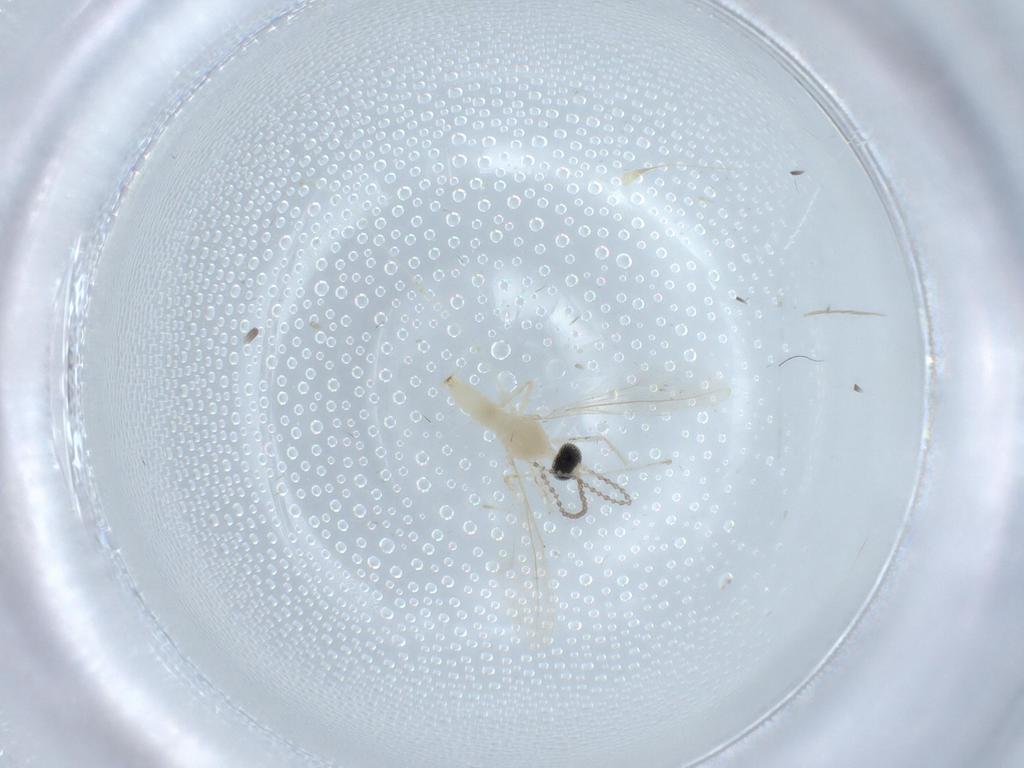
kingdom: Animalia
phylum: Arthropoda
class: Insecta
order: Diptera
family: Cecidomyiidae
